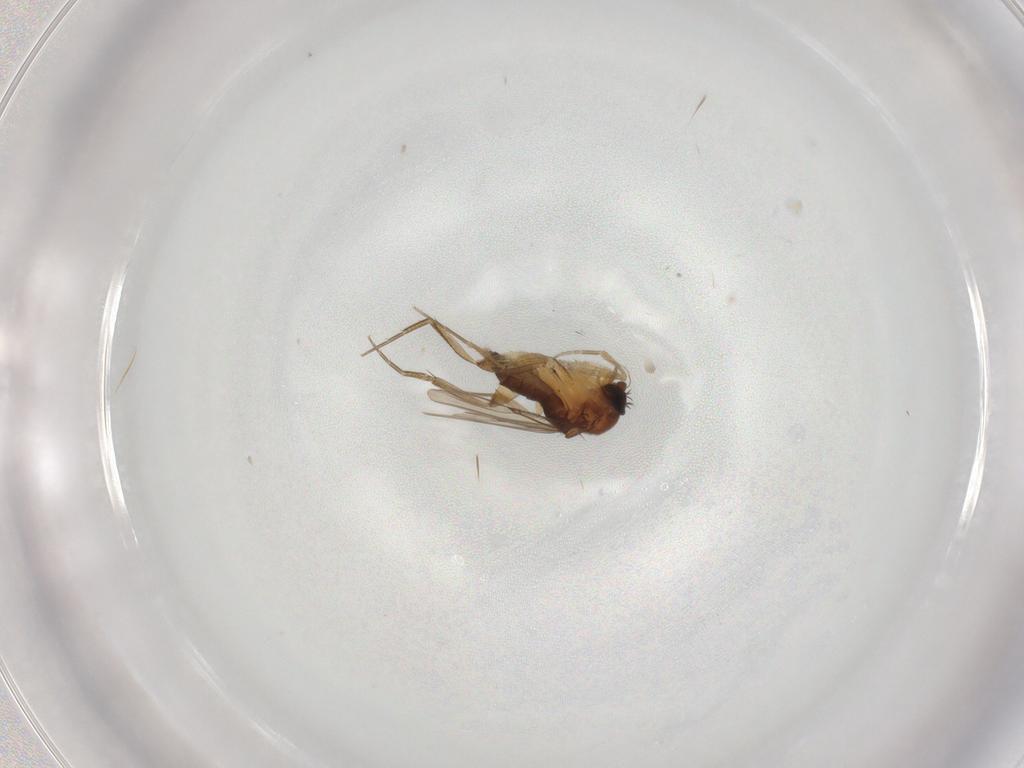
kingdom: Animalia
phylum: Arthropoda
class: Insecta
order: Diptera
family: Phoridae
